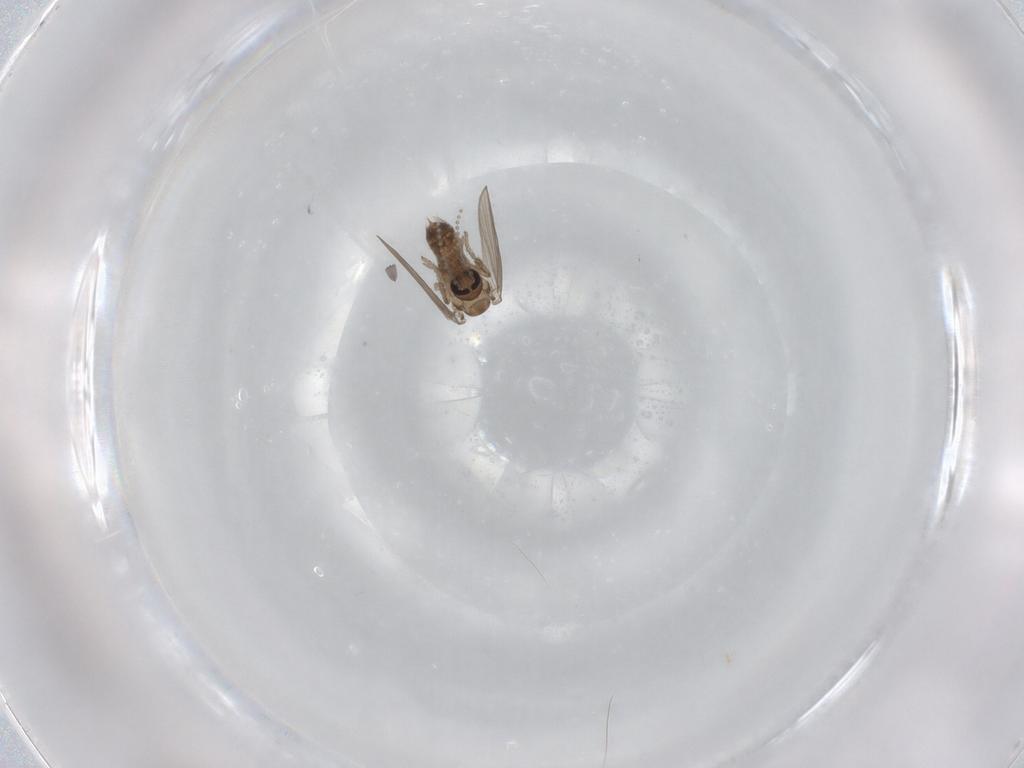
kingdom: Animalia
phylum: Arthropoda
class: Insecta
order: Diptera
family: Psychodidae
